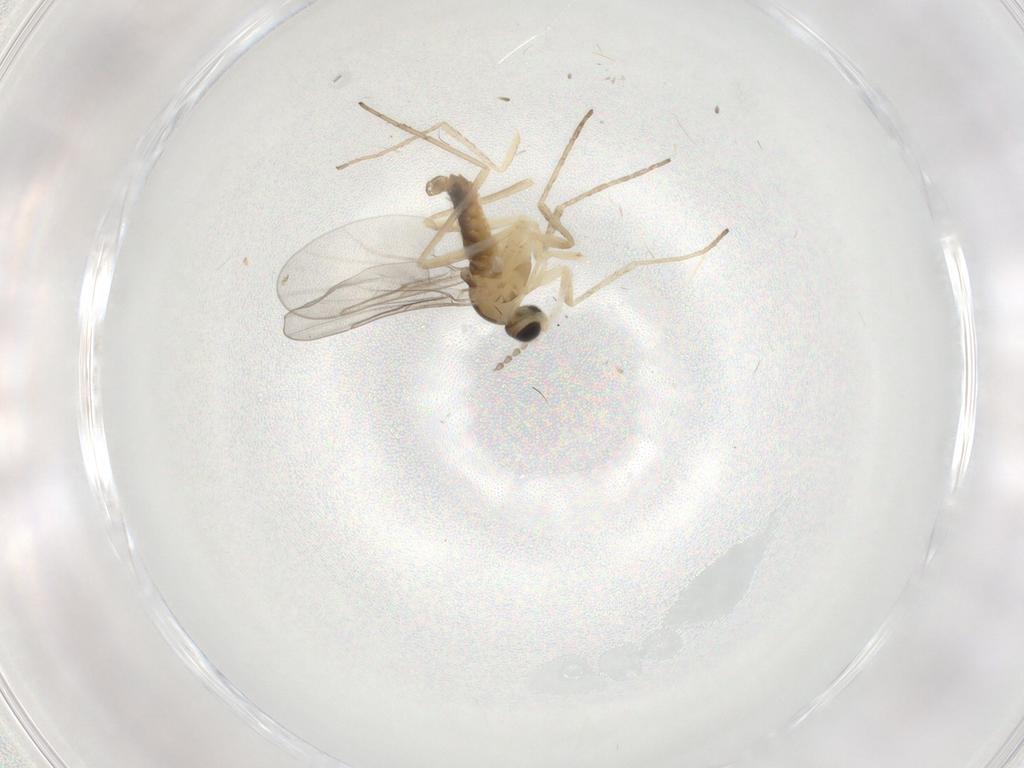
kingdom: Animalia
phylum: Arthropoda
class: Insecta
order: Diptera
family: Cecidomyiidae
